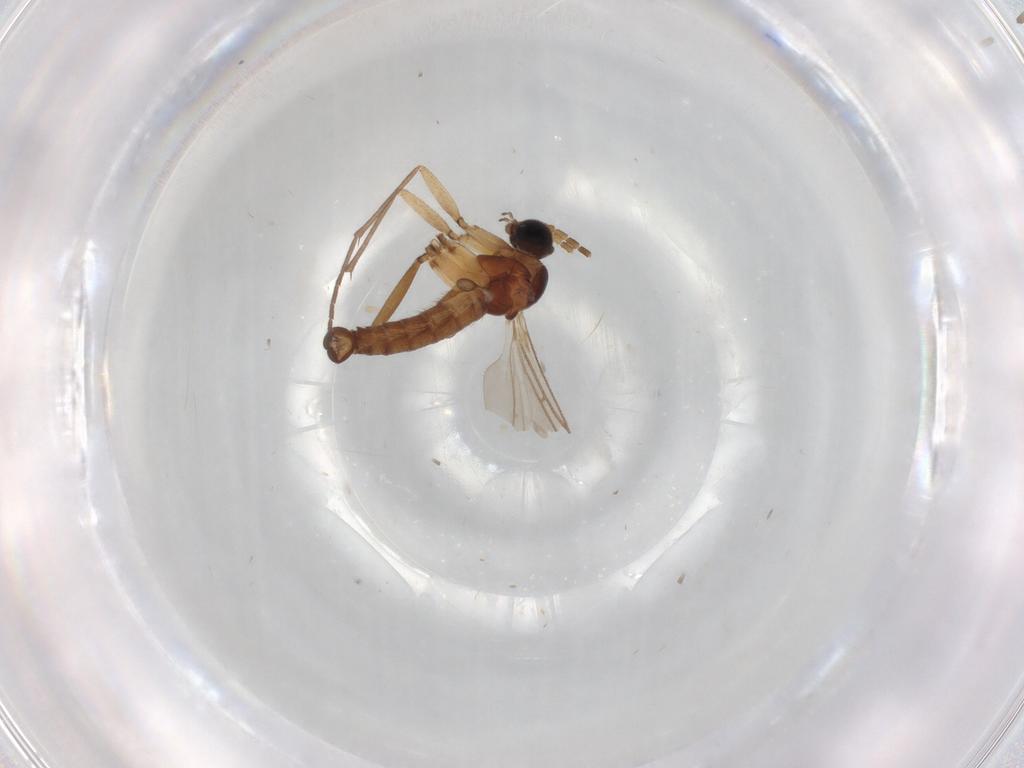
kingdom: Animalia
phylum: Arthropoda
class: Insecta
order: Diptera
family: Sciaridae
